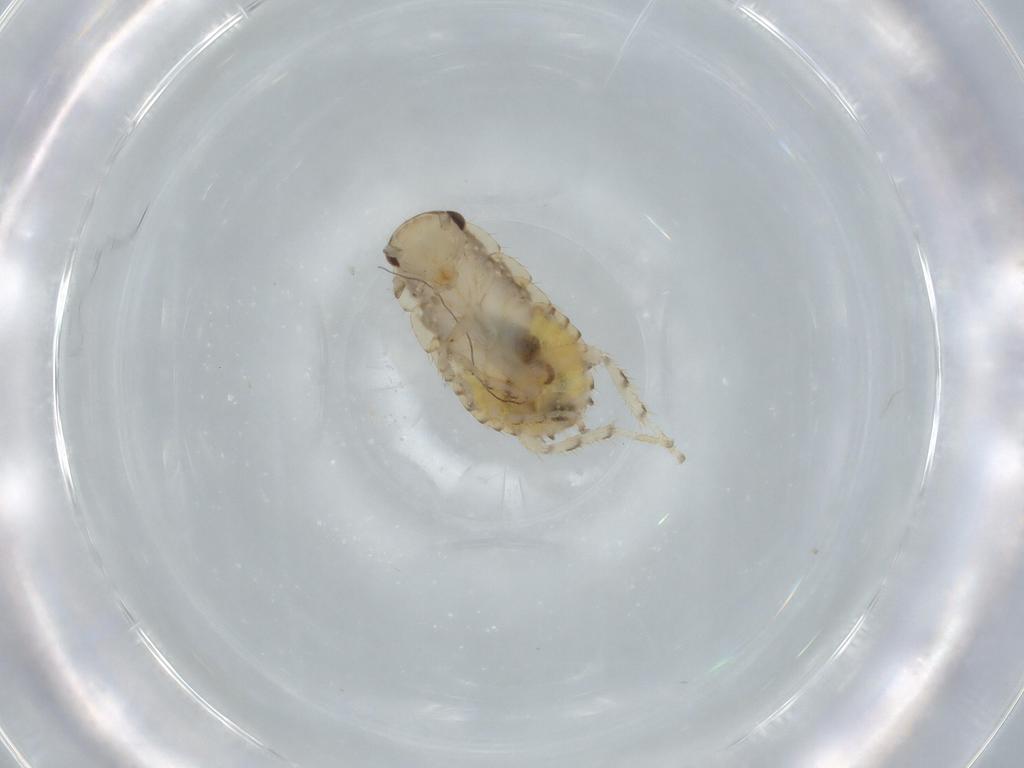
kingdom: Animalia
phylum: Arthropoda
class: Insecta
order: Blattodea
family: Ectobiidae
